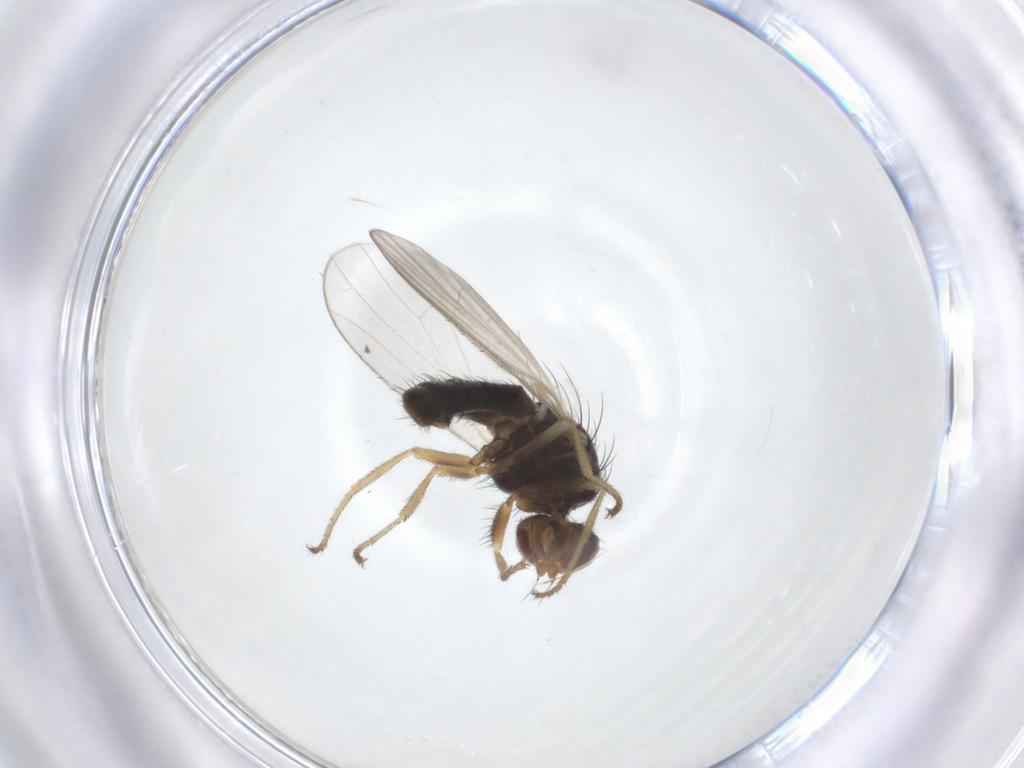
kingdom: Animalia
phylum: Arthropoda
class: Insecta
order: Diptera
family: Heleomyzidae
